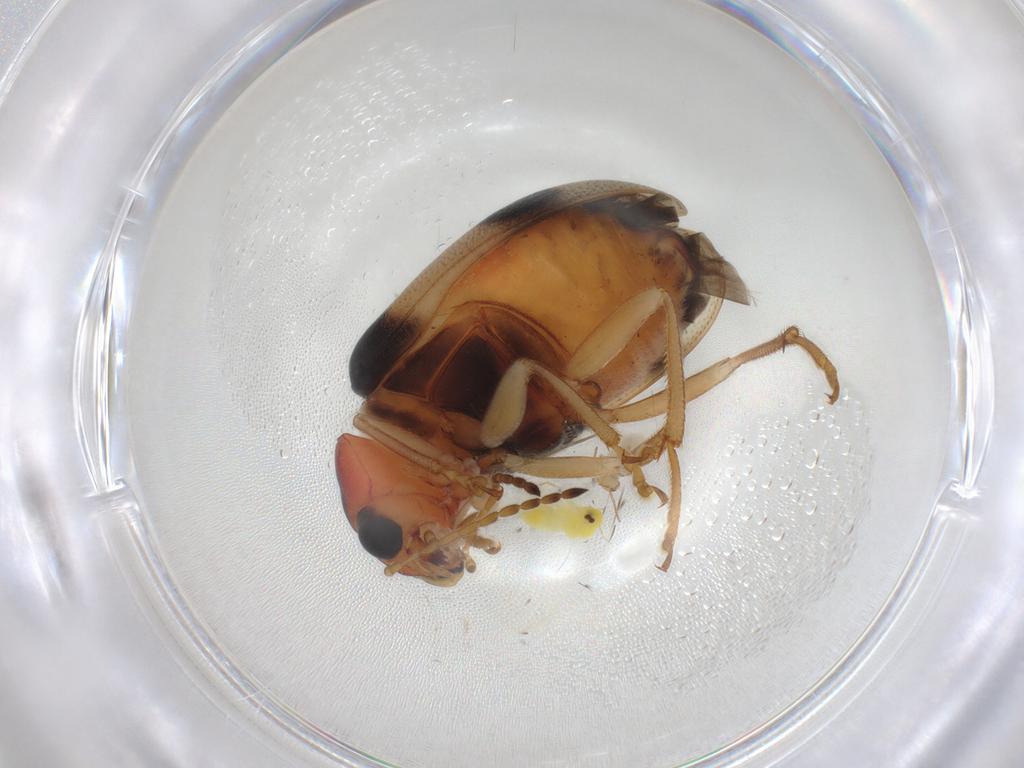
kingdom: Animalia
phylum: Arthropoda
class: Insecta
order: Coleoptera
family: Chrysomelidae
